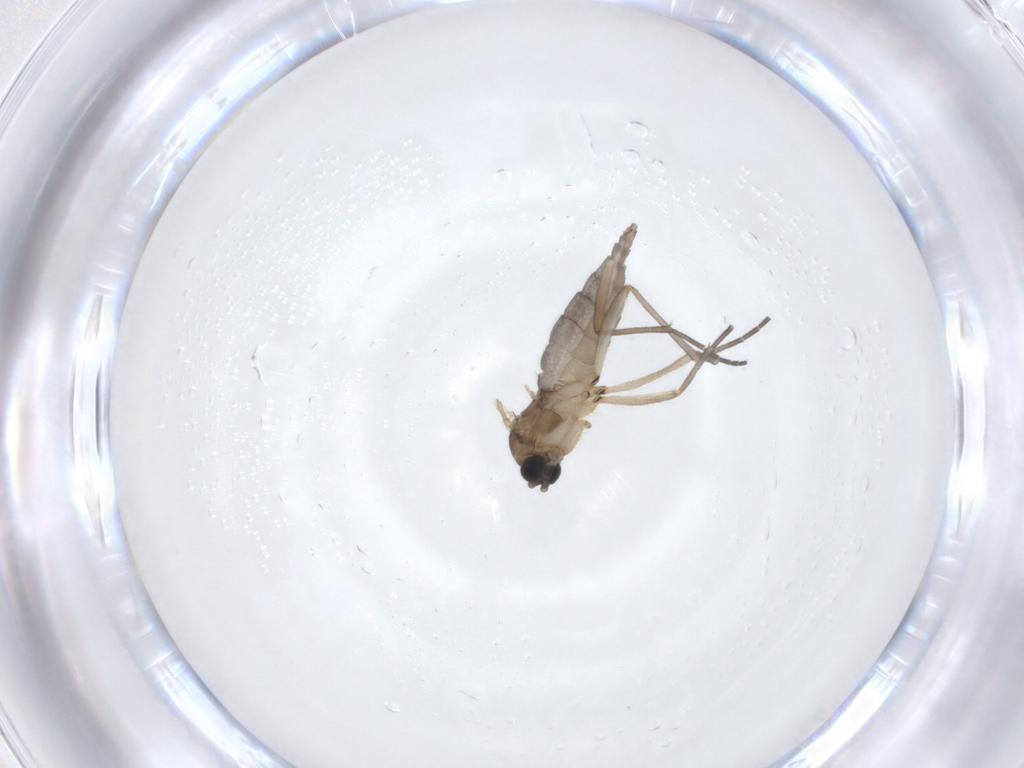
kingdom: Animalia
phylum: Arthropoda
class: Insecta
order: Diptera
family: Sciaridae
